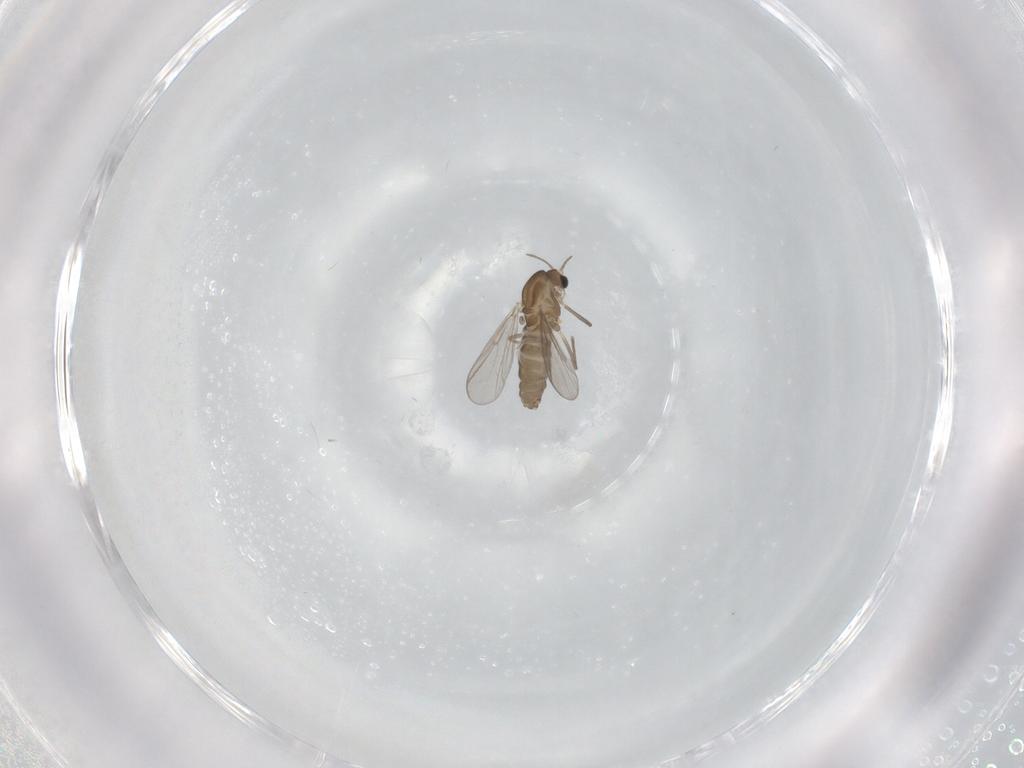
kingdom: Animalia
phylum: Arthropoda
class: Insecta
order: Diptera
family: Chironomidae
